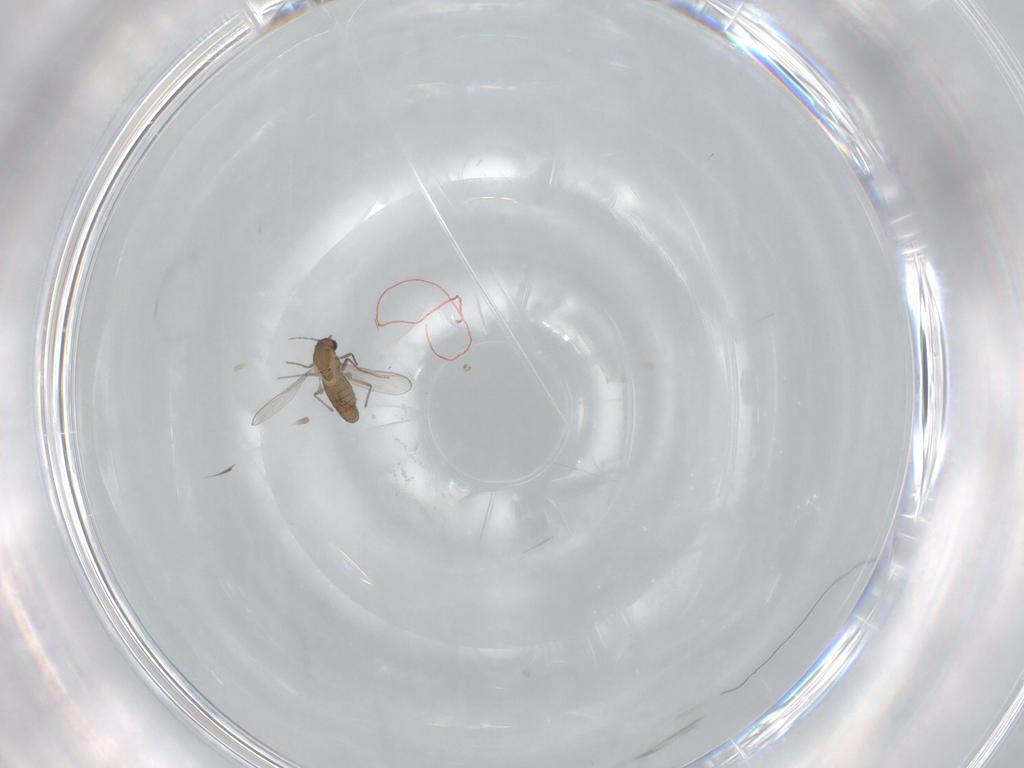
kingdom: Animalia
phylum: Arthropoda
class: Insecta
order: Diptera
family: Chironomidae
